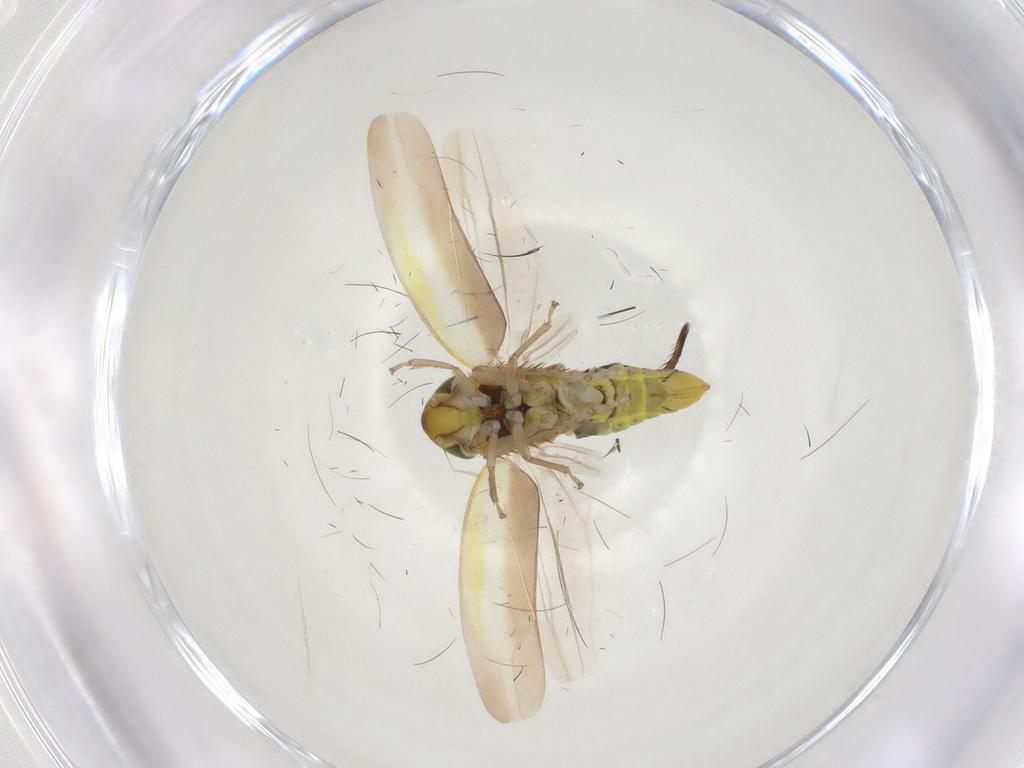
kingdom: Animalia
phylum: Arthropoda
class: Insecta
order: Hemiptera
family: Cicadellidae
